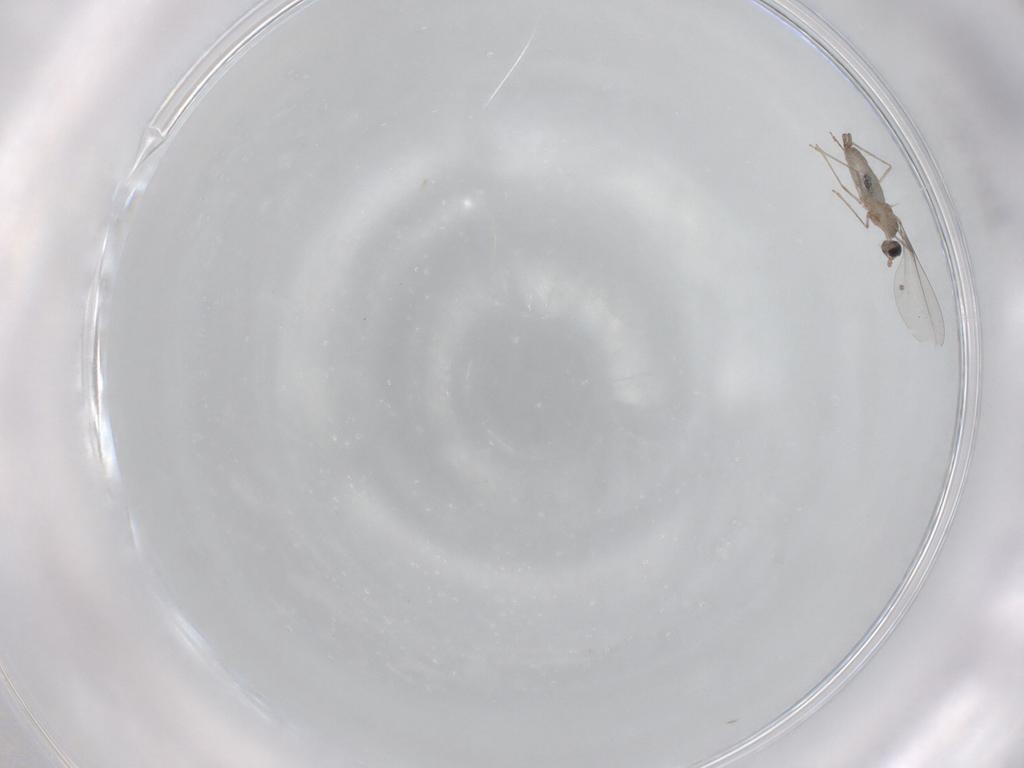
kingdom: Animalia
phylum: Arthropoda
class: Insecta
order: Diptera
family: Cecidomyiidae
